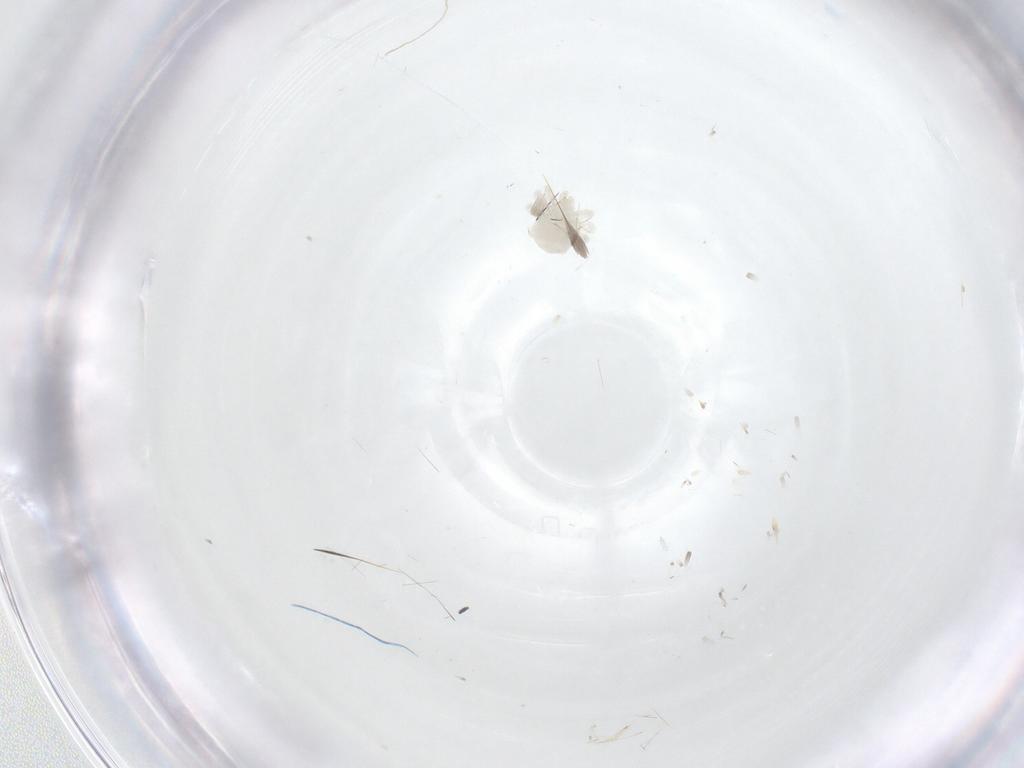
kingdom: Animalia
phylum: Arthropoda
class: Arachnida
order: Trombidiformes
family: Anystidae
